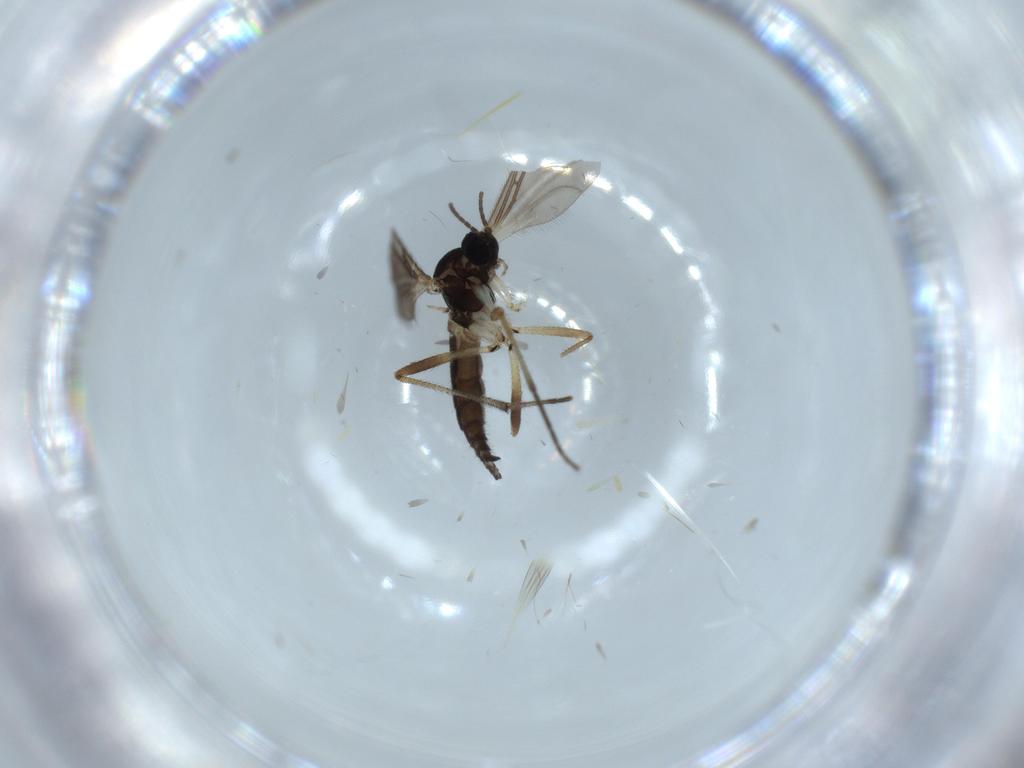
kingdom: Animalia
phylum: Arthropoda
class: Insecta
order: Diptera
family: Sciaridae
